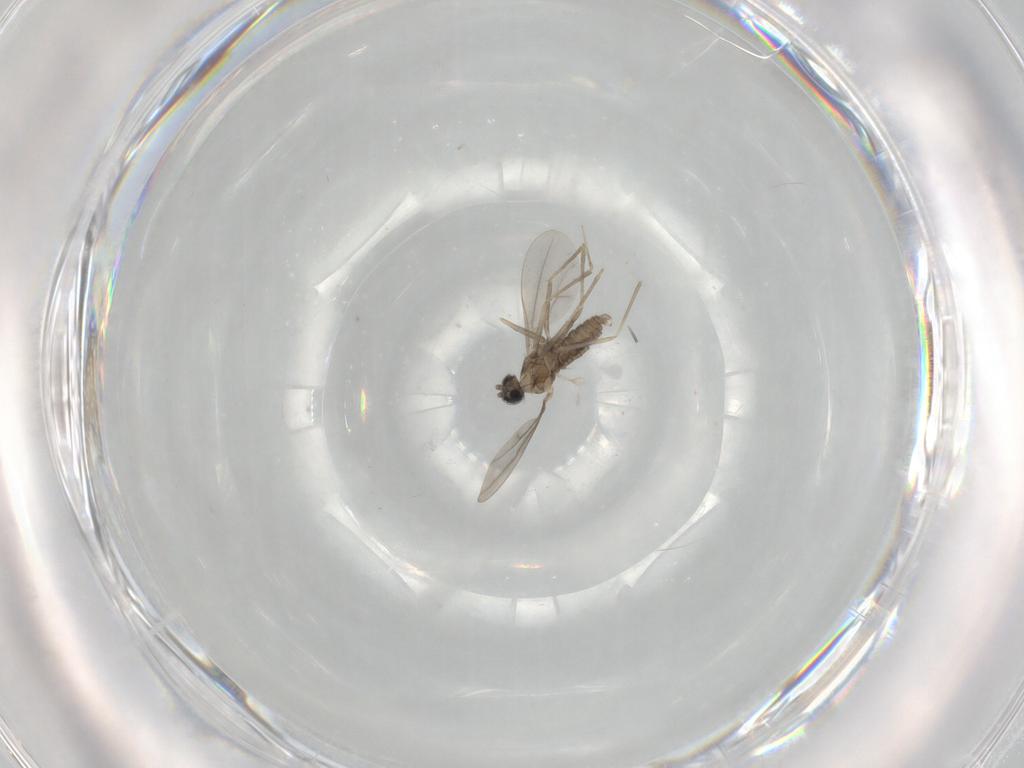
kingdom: Animalia
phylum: Arthropoda
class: Insecta
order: Diptera
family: Cecidomyiidae
